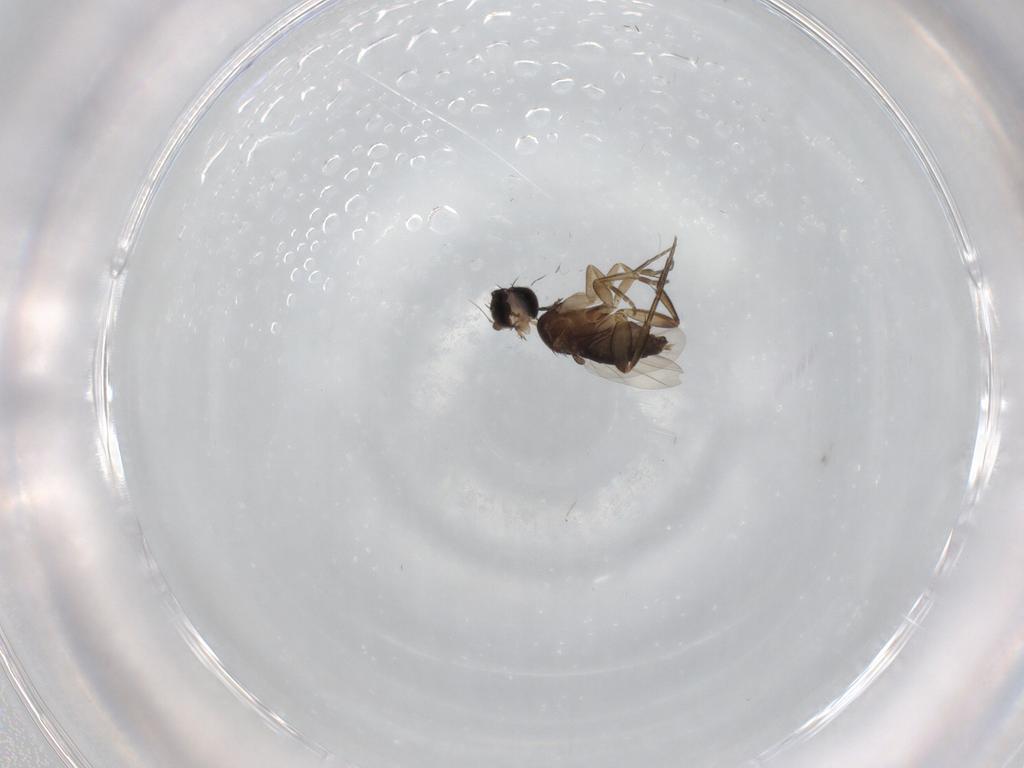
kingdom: Animalia
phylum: Arthropoda
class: Insecta
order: Diptera
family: Phoridae
